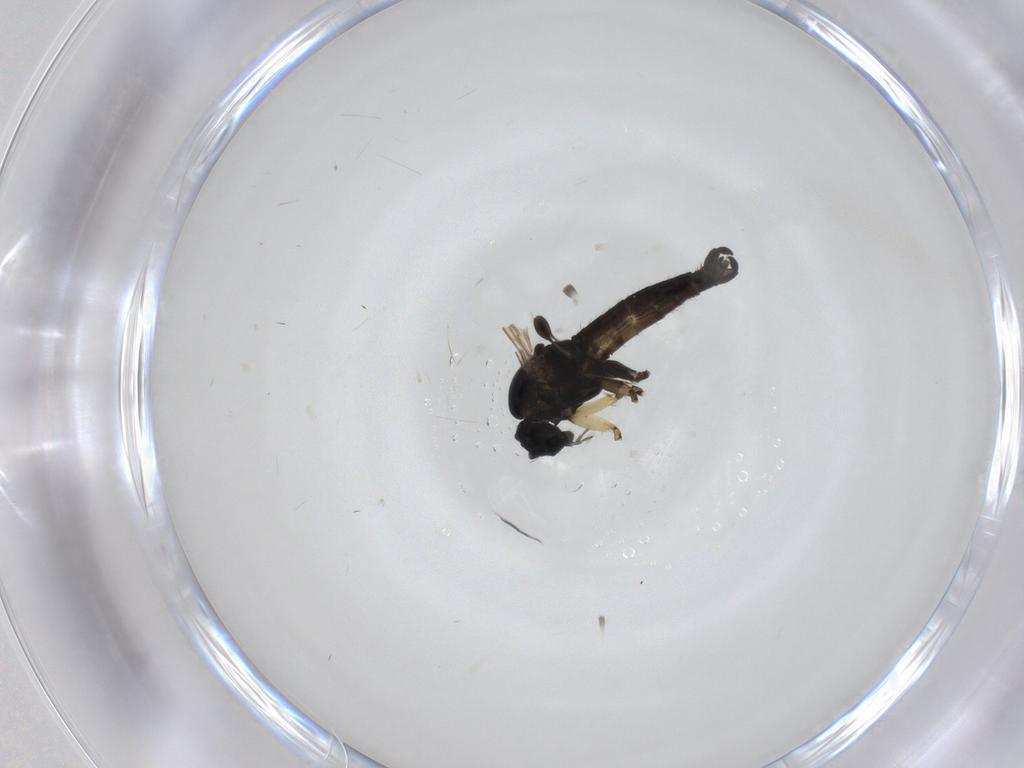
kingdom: Animalia
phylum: Arthropoda
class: Insecta
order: Diptera
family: Sciaridae
